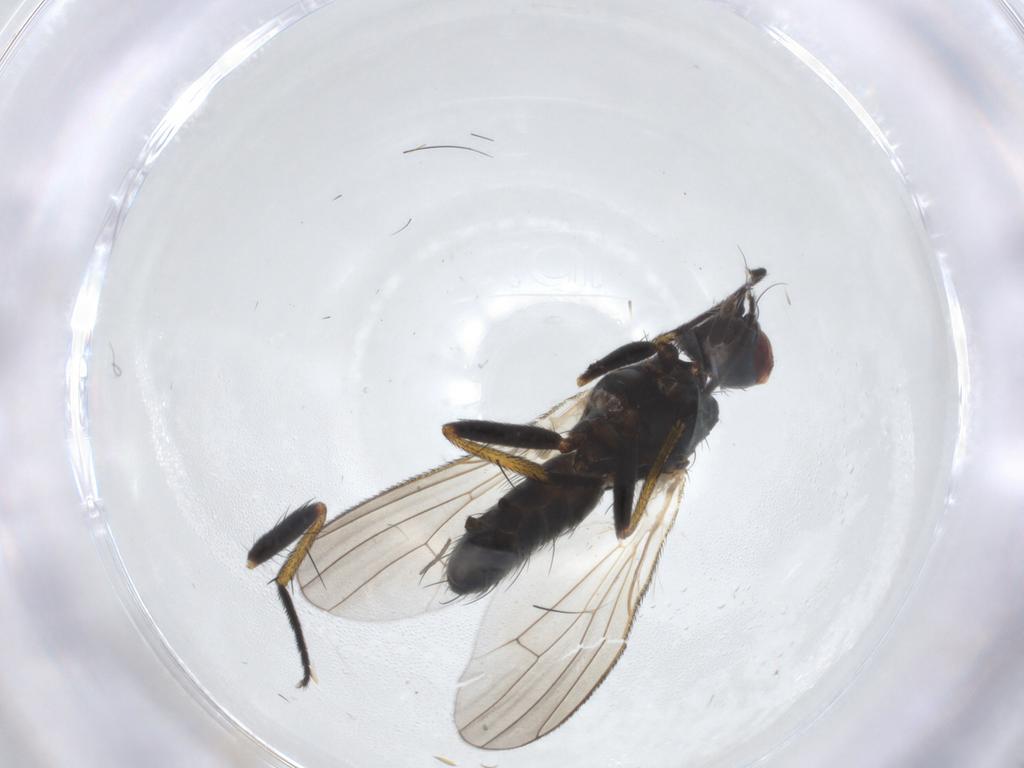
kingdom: Animalia
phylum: Arthropoda
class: Insecta
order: Diptera
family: Muscidae
